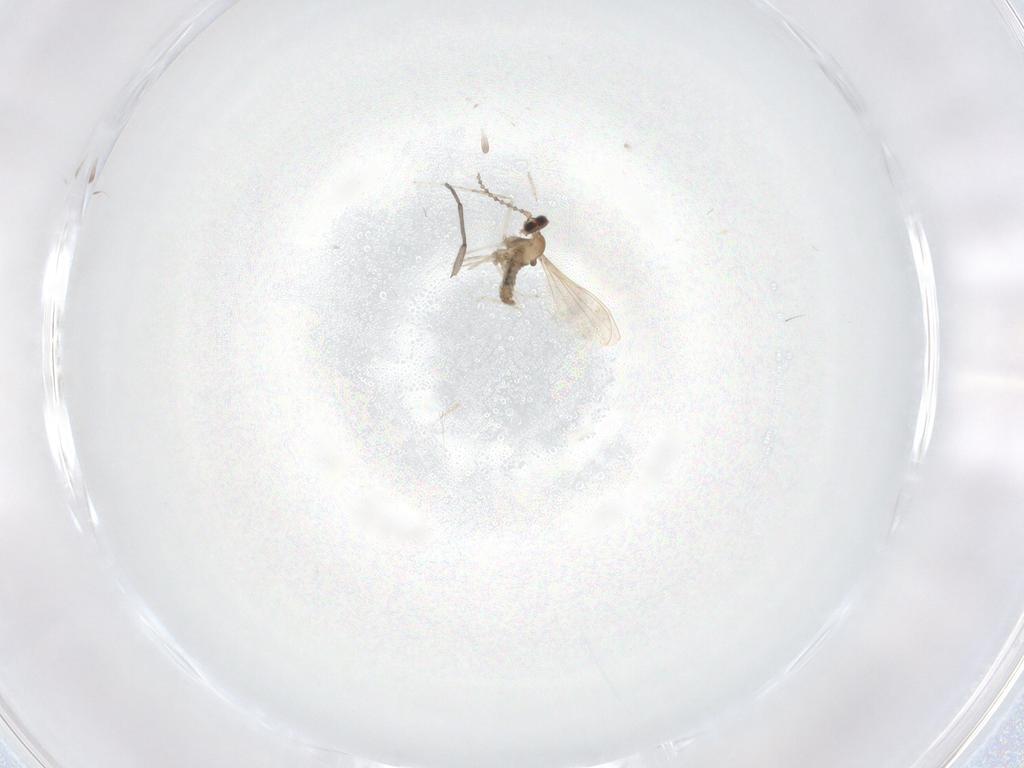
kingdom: Animalia
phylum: Arthropoda
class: Insecta
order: Diptera
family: Sciaridae
